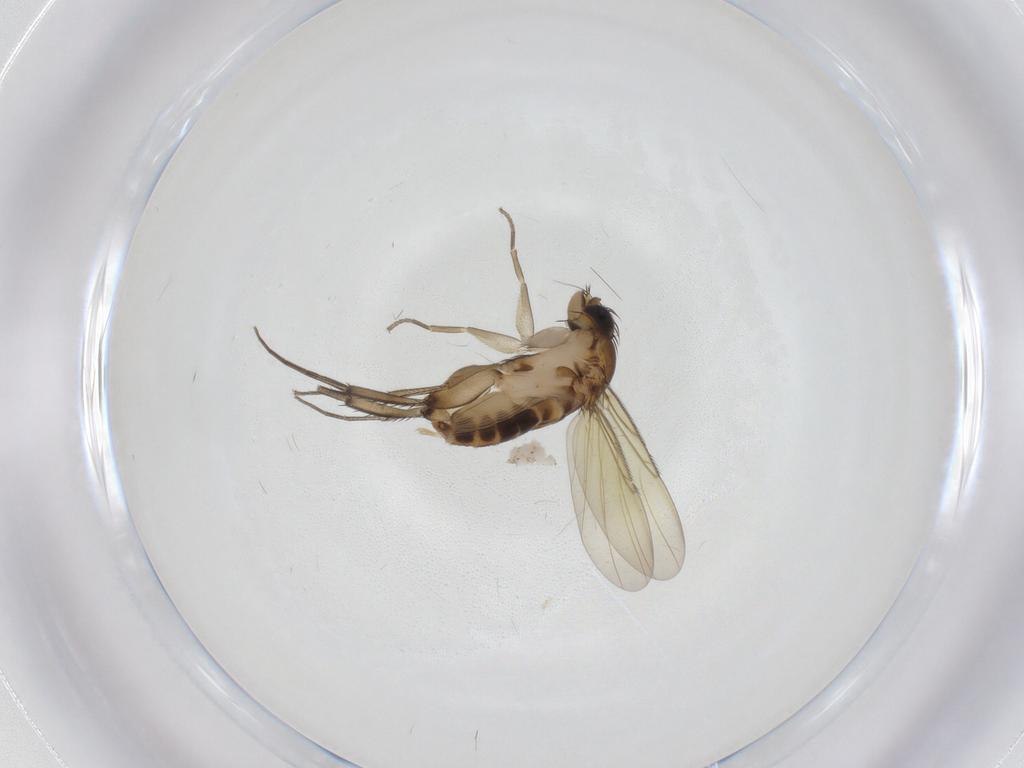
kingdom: Animalia
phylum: Arthropoda
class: Insecta
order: Diptera
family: Phoridae
